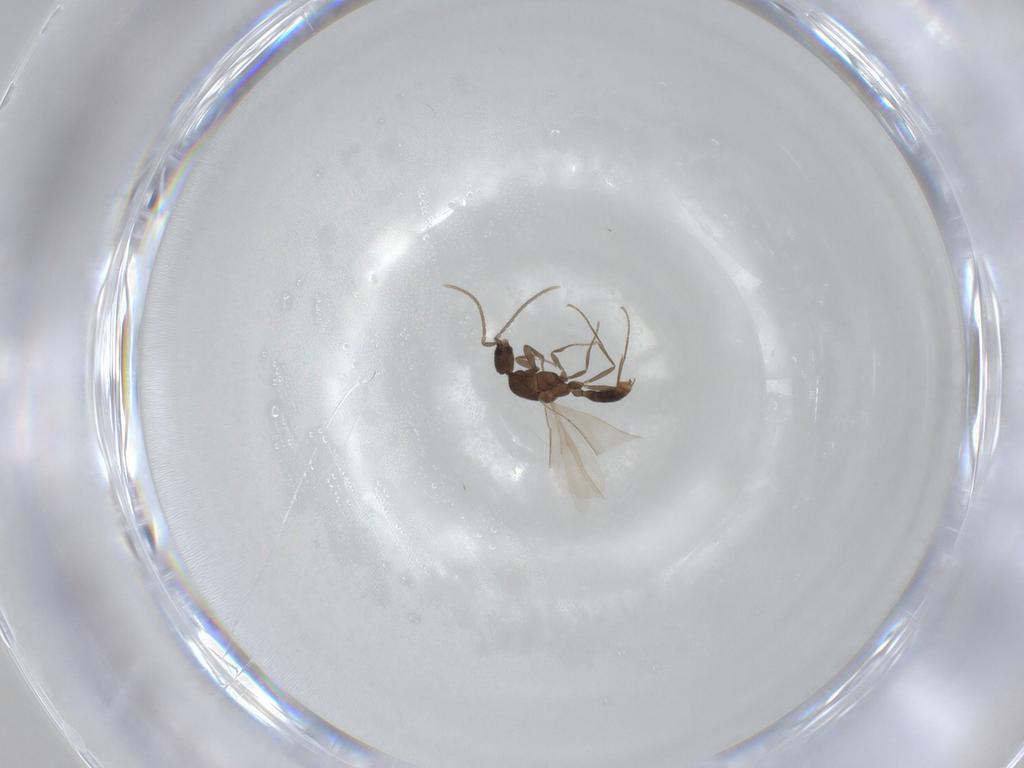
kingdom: Animalia
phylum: Arthropoda
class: Insecta
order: Hymenoptera
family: Formicidae
